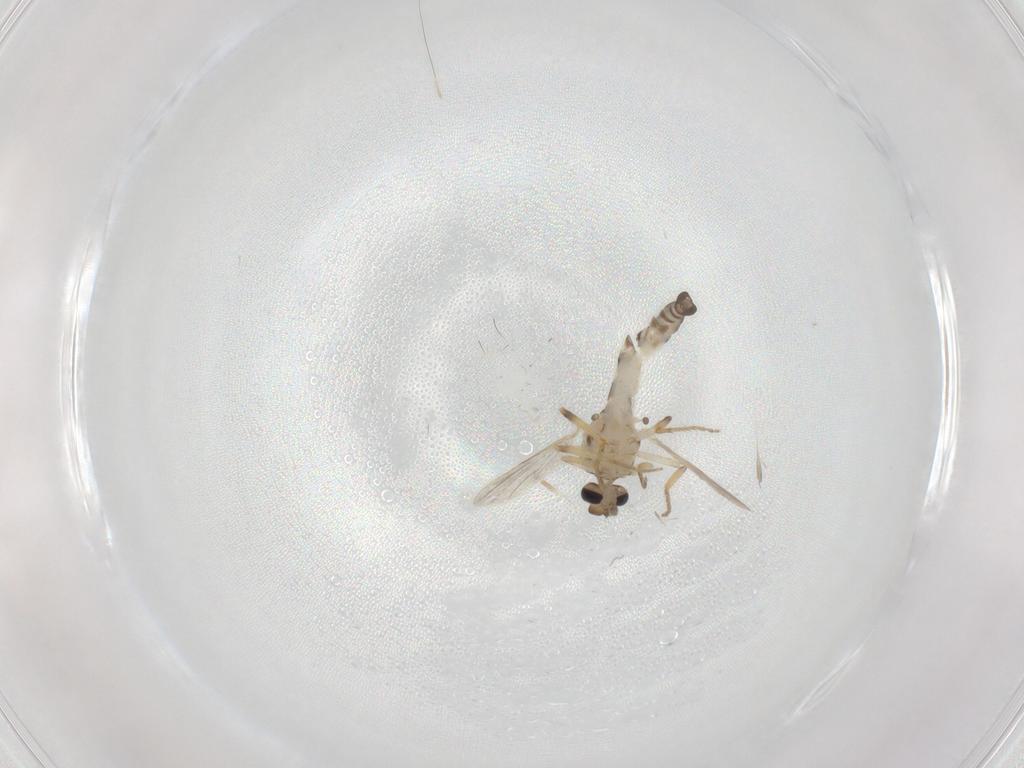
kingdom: Animalia
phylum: Arthropoda
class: Insecta
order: Diptera
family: Ceratopogonidae
